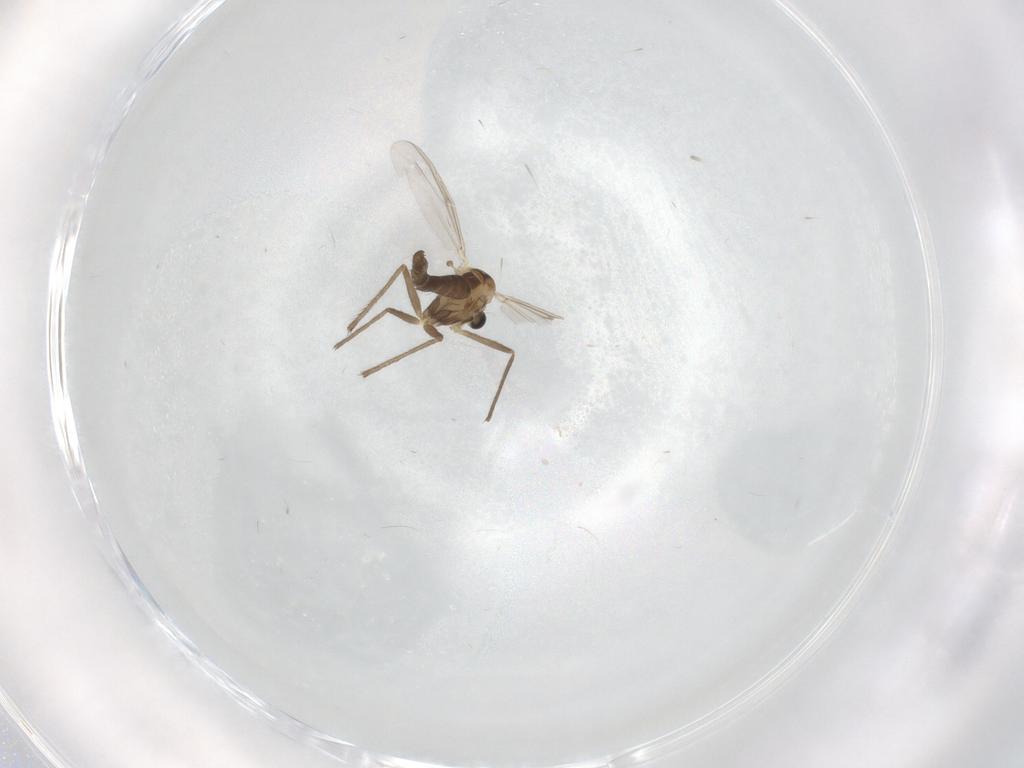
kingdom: Animalia
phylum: Arthropoda
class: Insecta
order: Diptera
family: Chironomidae
